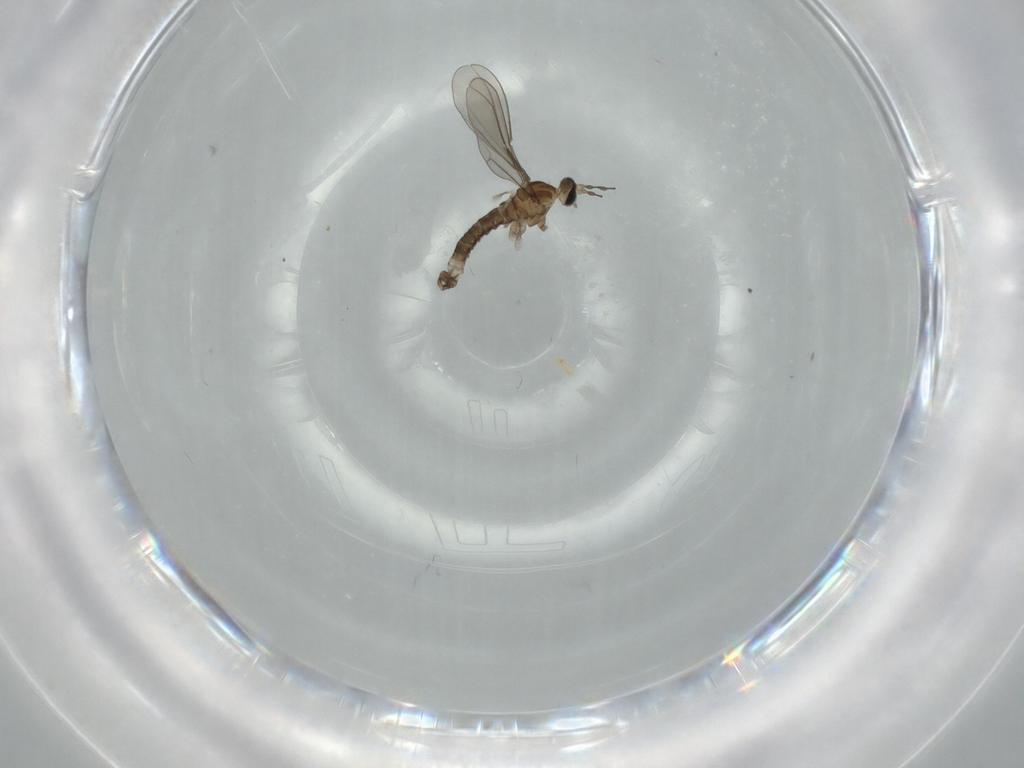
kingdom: Animalia
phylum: Arthropoda
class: Insecta
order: Diptera
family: Hybotidae
